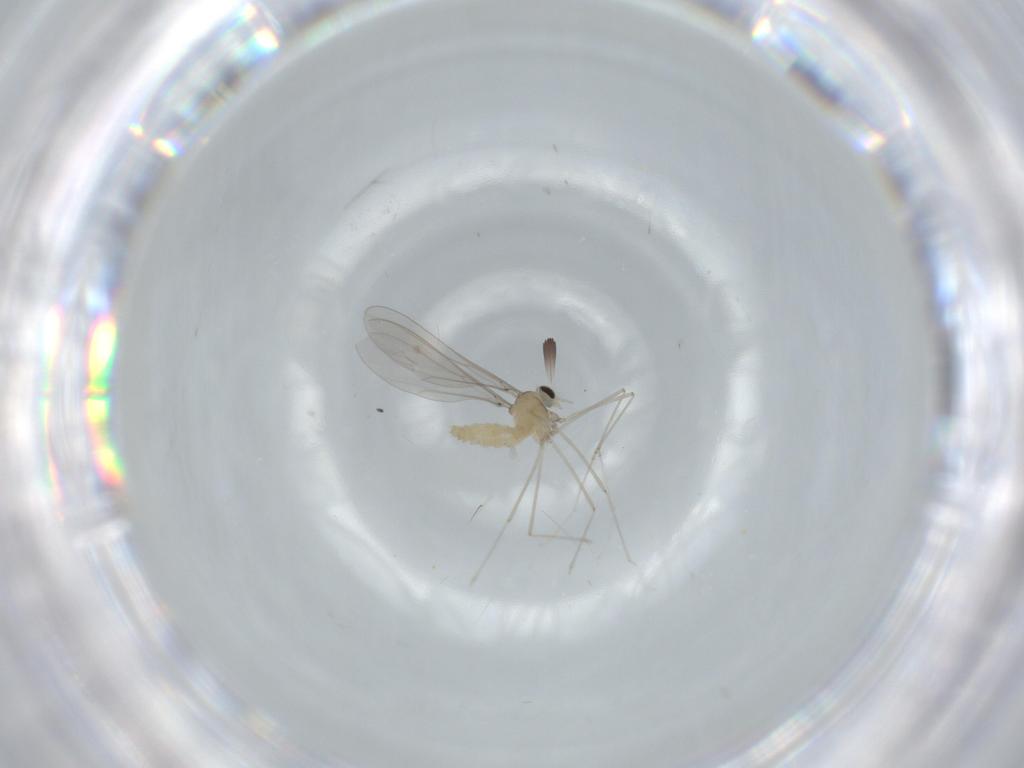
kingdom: Animalia
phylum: Arthropoda
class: Insecta
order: Diptera
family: Cecidomyiidae
